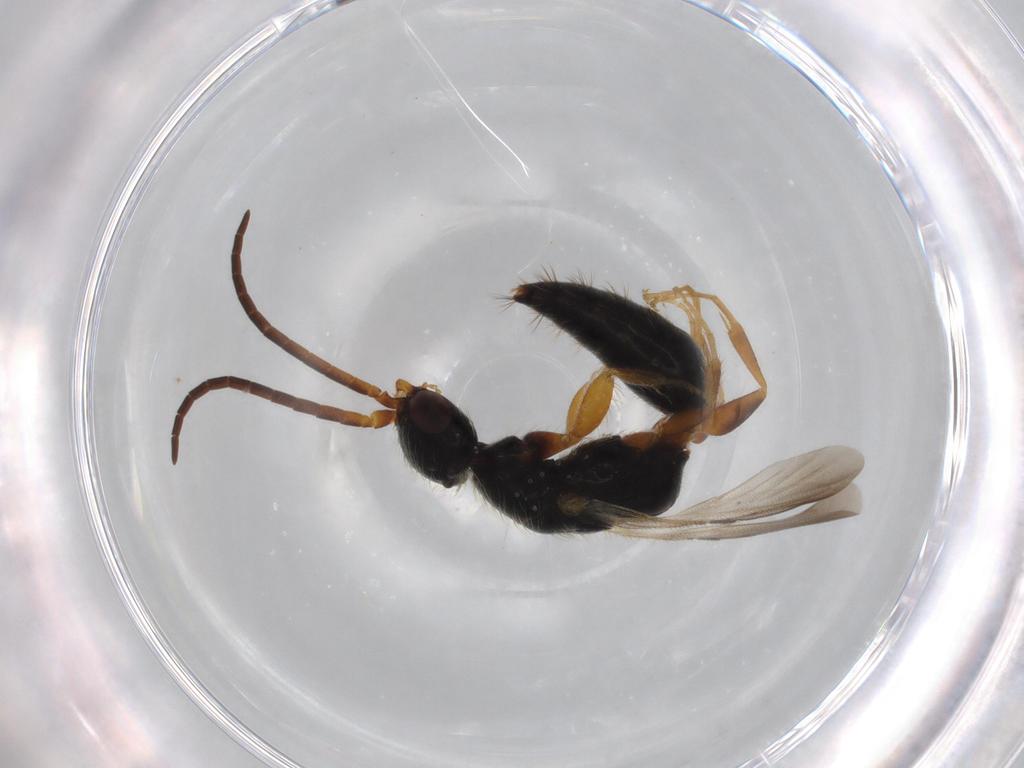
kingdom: Animalia
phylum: Arthropoda
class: Insecta
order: Hymenoptera
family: Bethylidae
